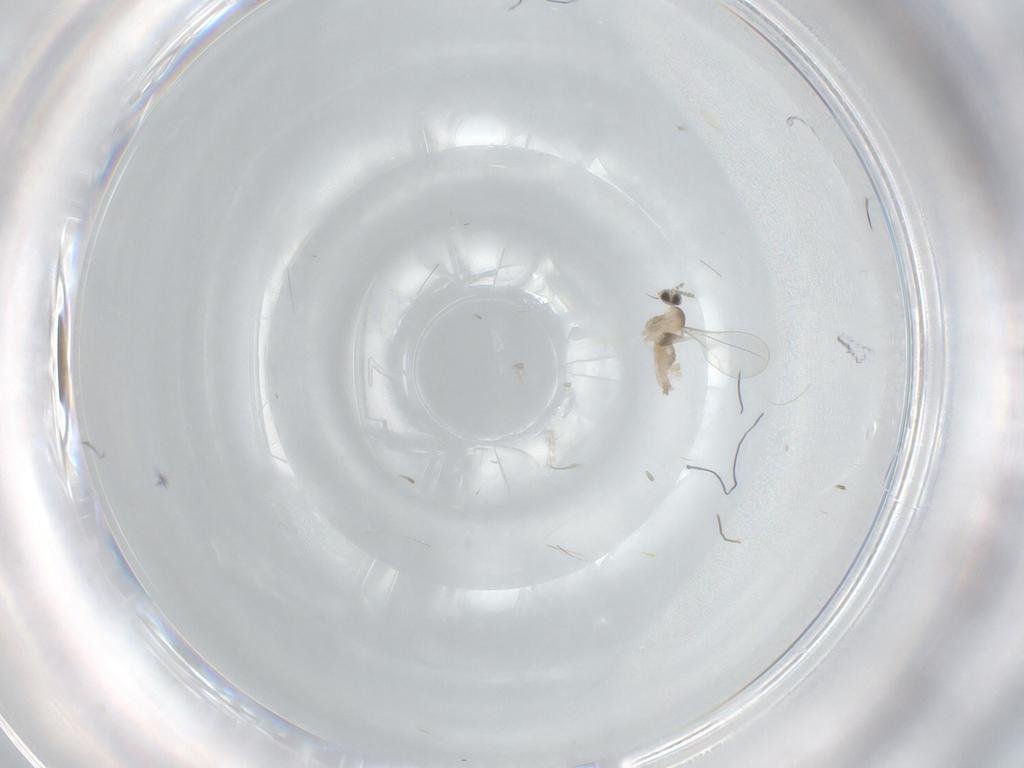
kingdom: Animalia
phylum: Arthropoda
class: Insecta
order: Diptera
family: Cecidomyiidae
